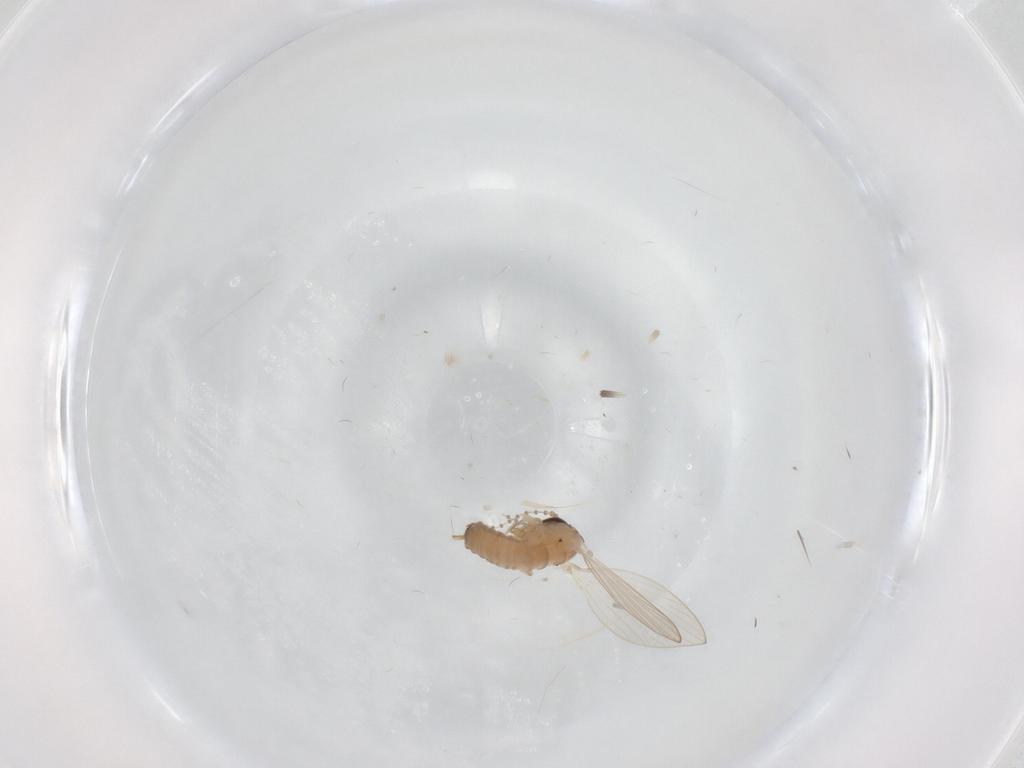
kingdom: Animalia
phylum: Arthropoda
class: Insecta
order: Diptera
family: Psychodidae
